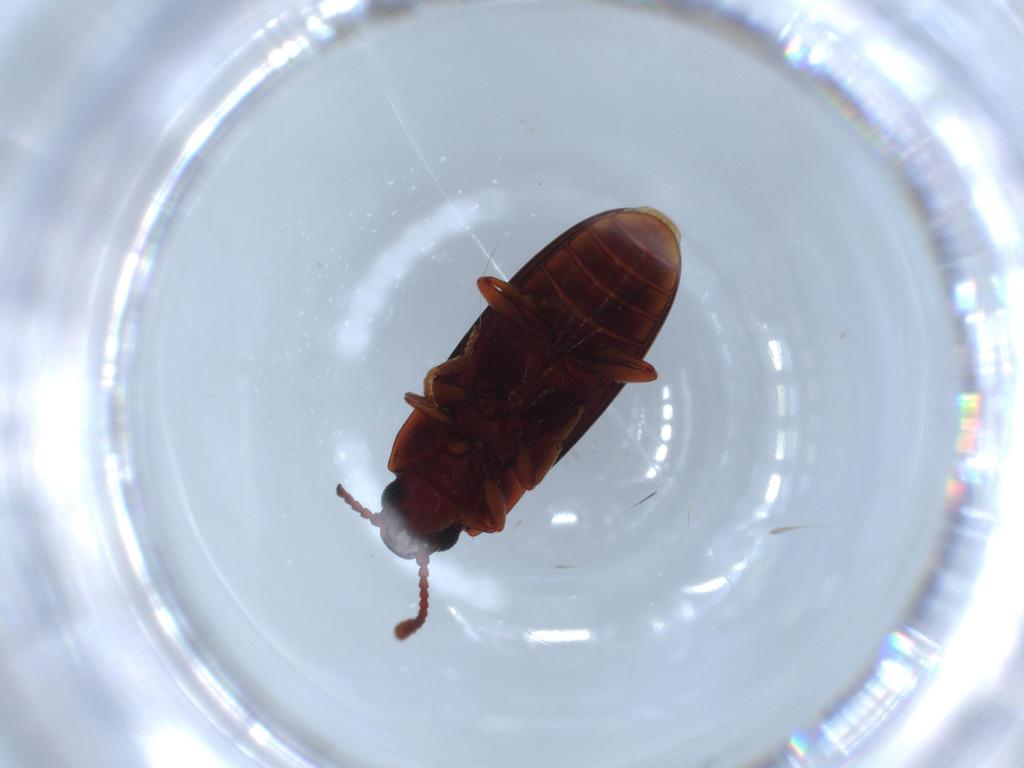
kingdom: Animalia
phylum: Arthropoda
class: Insecta
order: Coleoptera
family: Erotylidae
